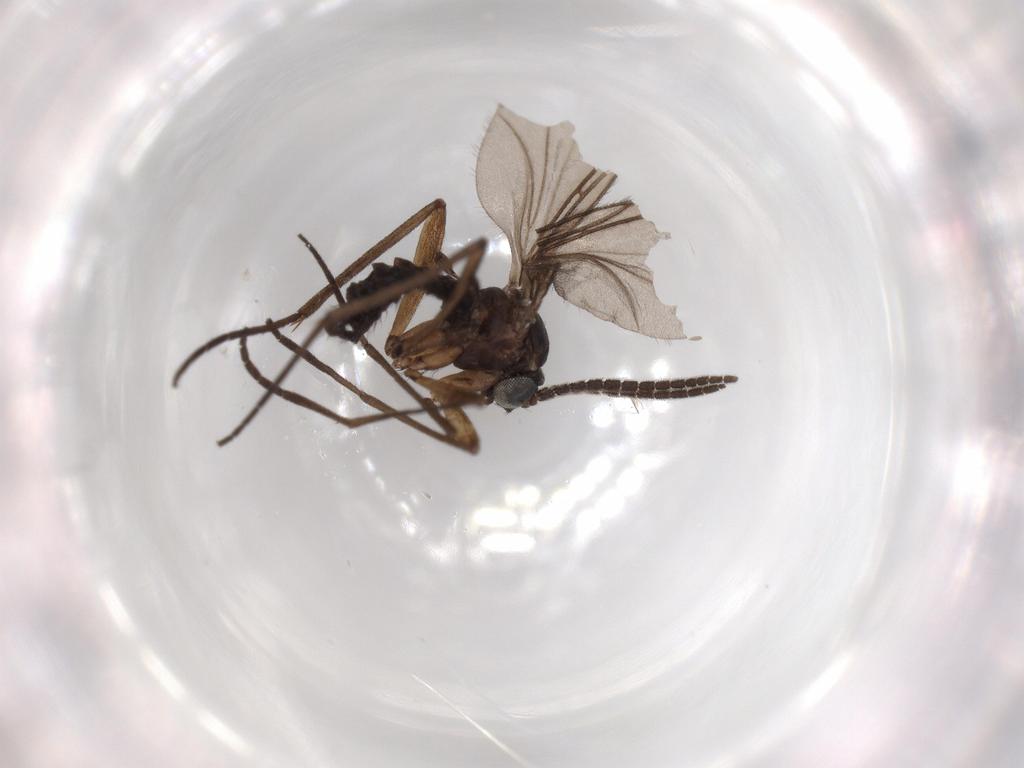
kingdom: Animalia
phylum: Arthropoda
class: Insecta
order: Diptera
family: Sciaridae
